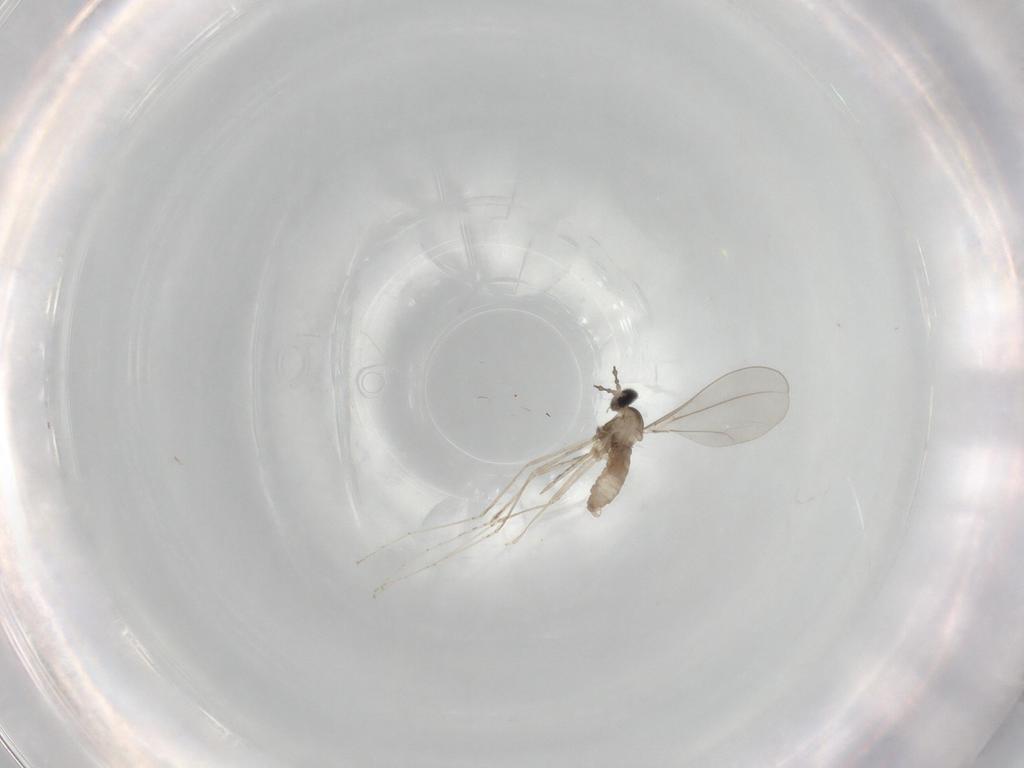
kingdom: Animalia
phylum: Arthropoda
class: Insecta
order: Diptera
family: Cecidomyiidae
